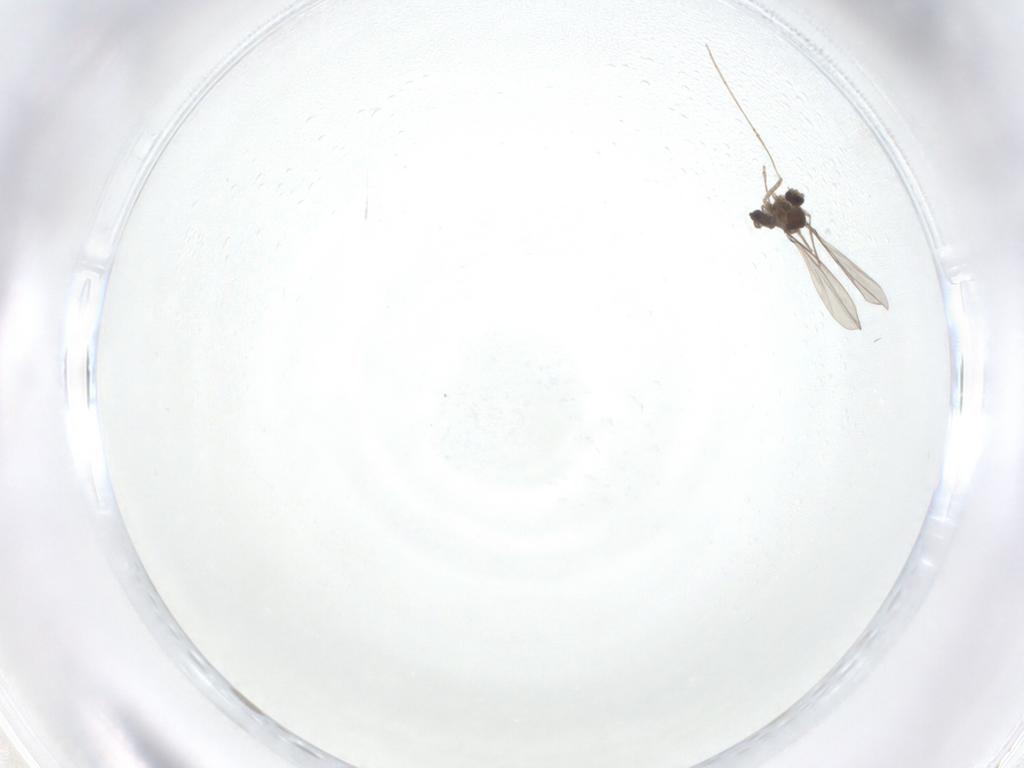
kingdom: Animalia
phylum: Arthropoda
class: Insecta
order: Diptera
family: Cecidomyiidae
